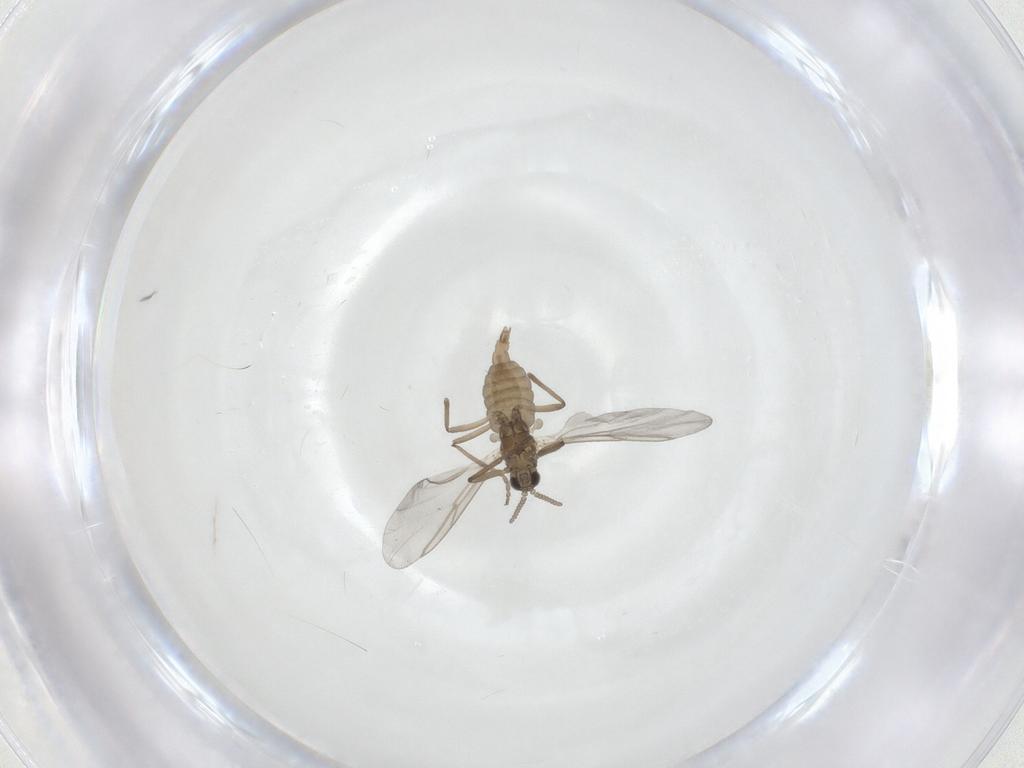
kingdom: Animalia
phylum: Arthropoda
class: Insecta
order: Diptera
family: Cecidomyiidae
